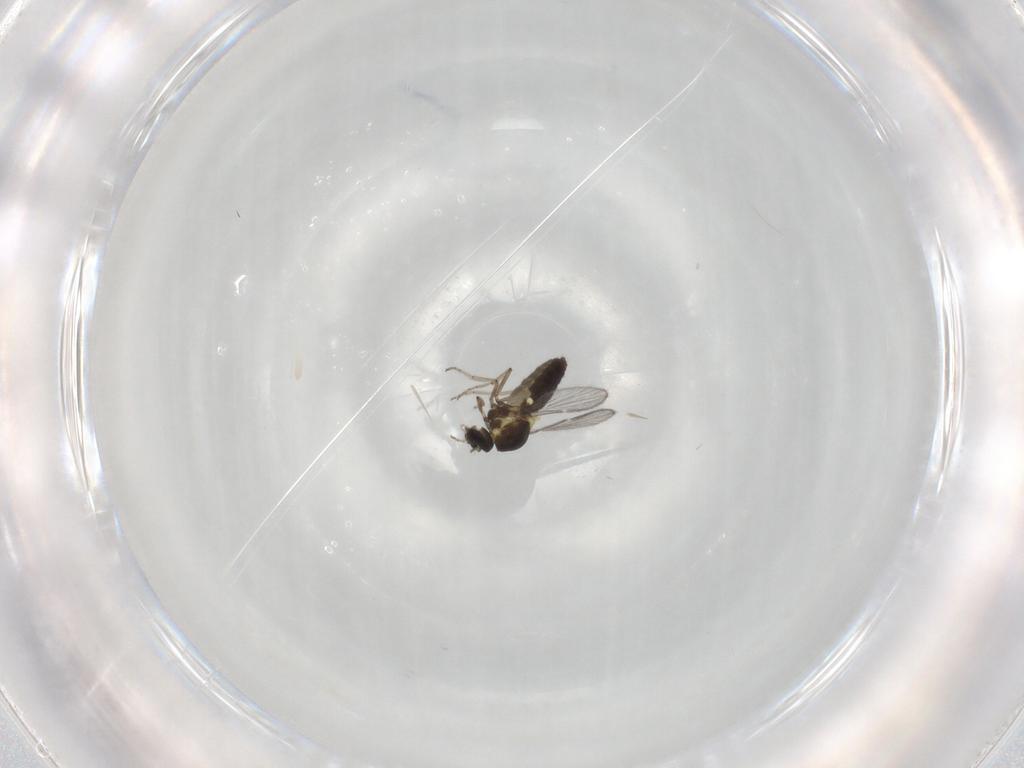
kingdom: Animalia
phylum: Arthropoda
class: Insecta
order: Diptera
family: Ceratopogonidae
